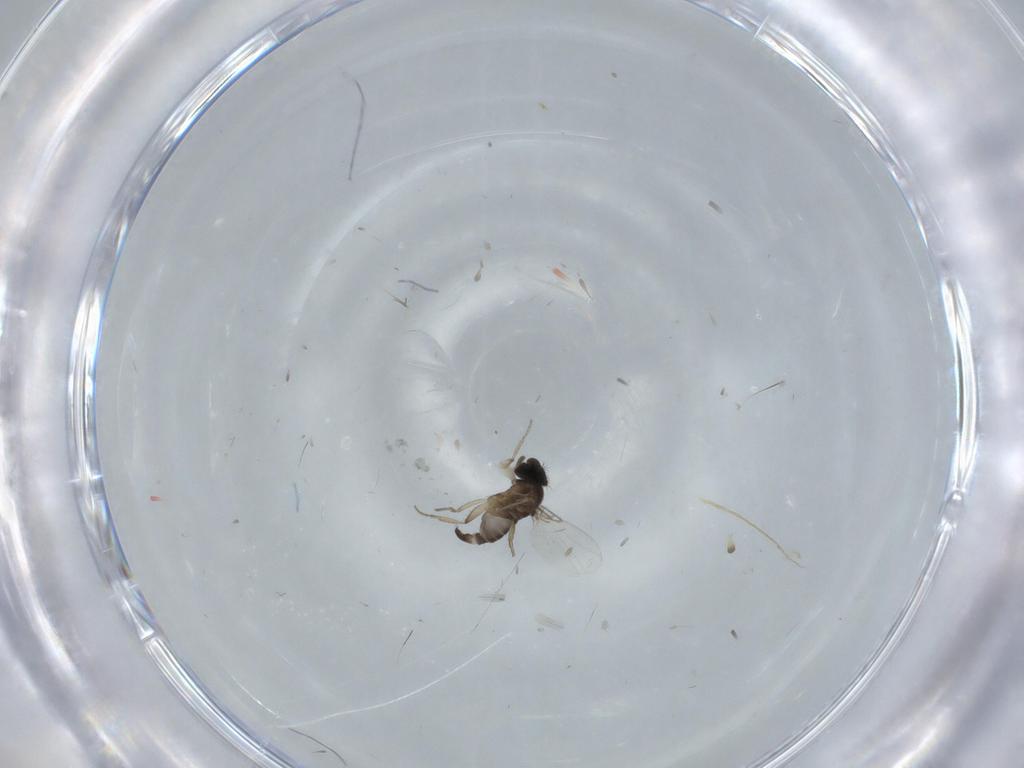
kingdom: Animalia
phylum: Arthropoda
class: Insecta
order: Diptera
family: Phoridae
